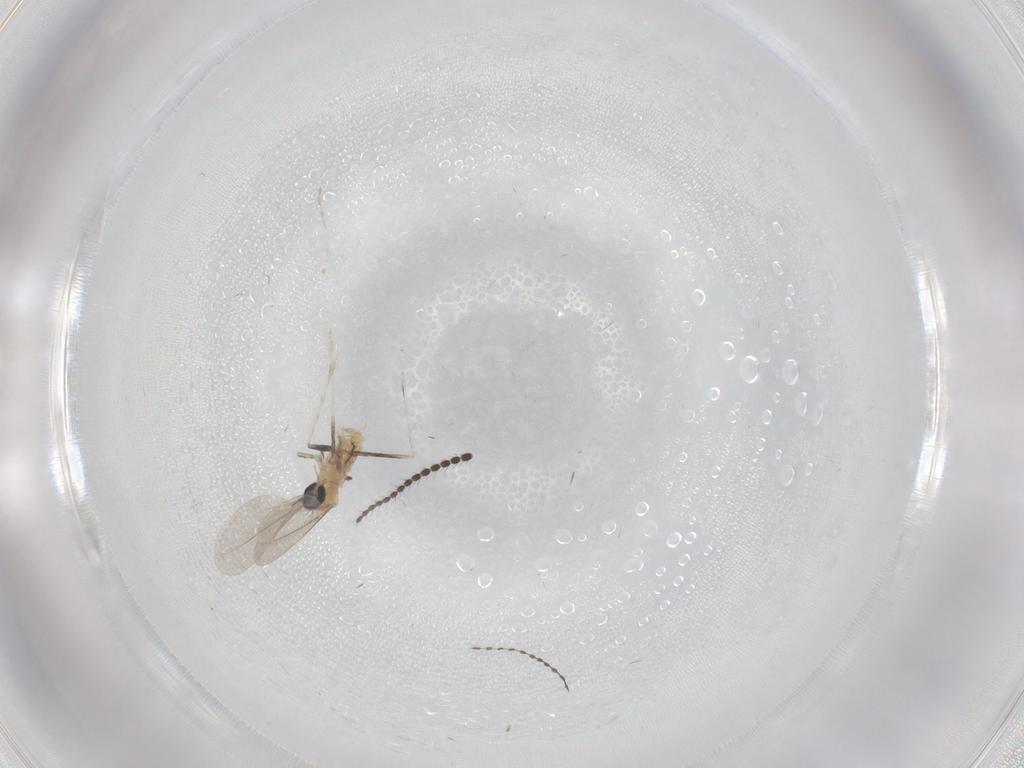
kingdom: Animalia
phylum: Arthropoda
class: Insecta
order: Diptera
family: Cecidomyiidae
